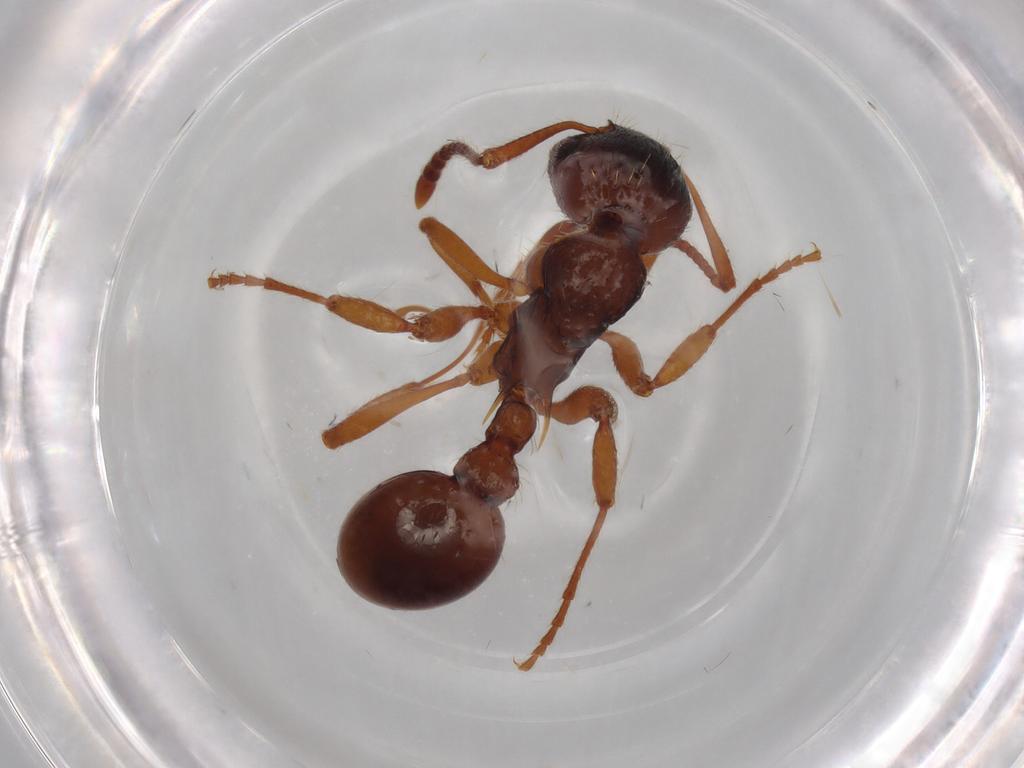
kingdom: Animalia
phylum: Arthropoda
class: Insecta
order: Hymenoptera
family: Formicidae
